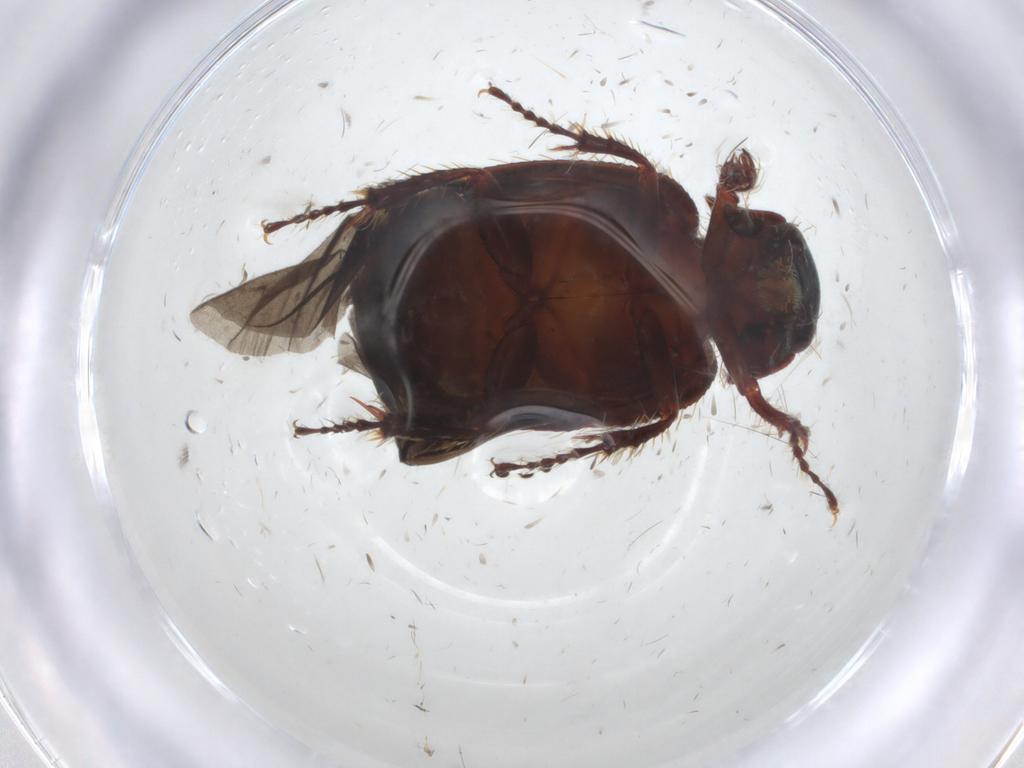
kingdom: Animalia
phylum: Arthropoda
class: Insecta
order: Coleoptera
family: Hybosoridae
